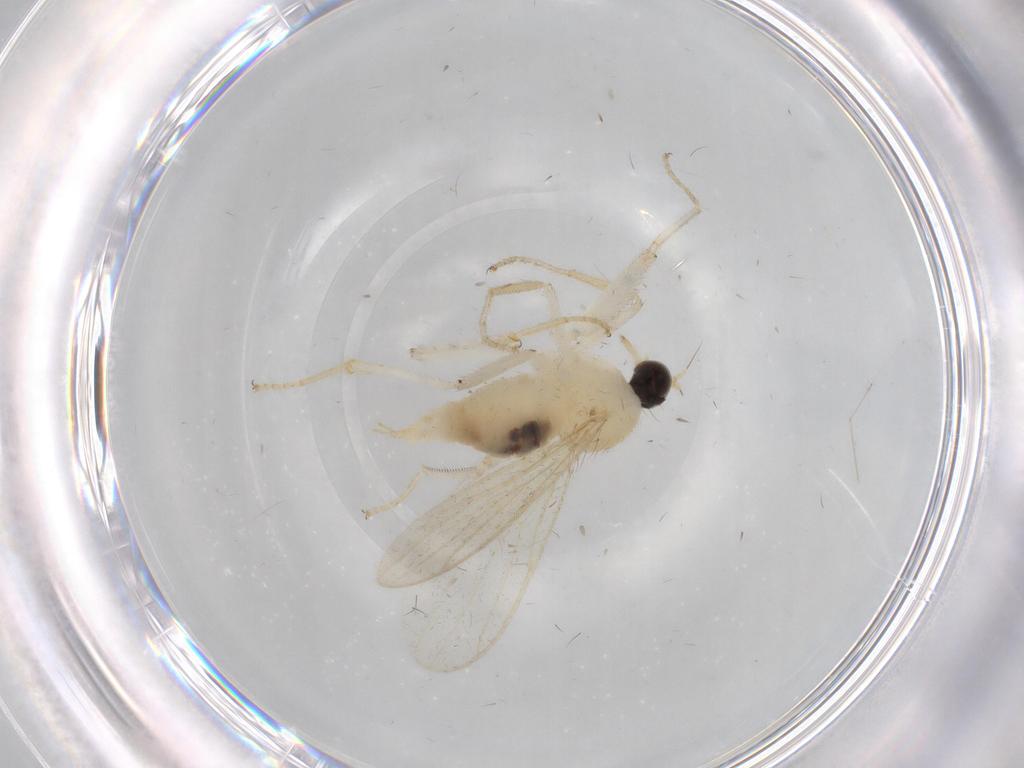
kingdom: Animalia
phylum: Arthropoda
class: Insecta
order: Diptera
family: Hybotidae
